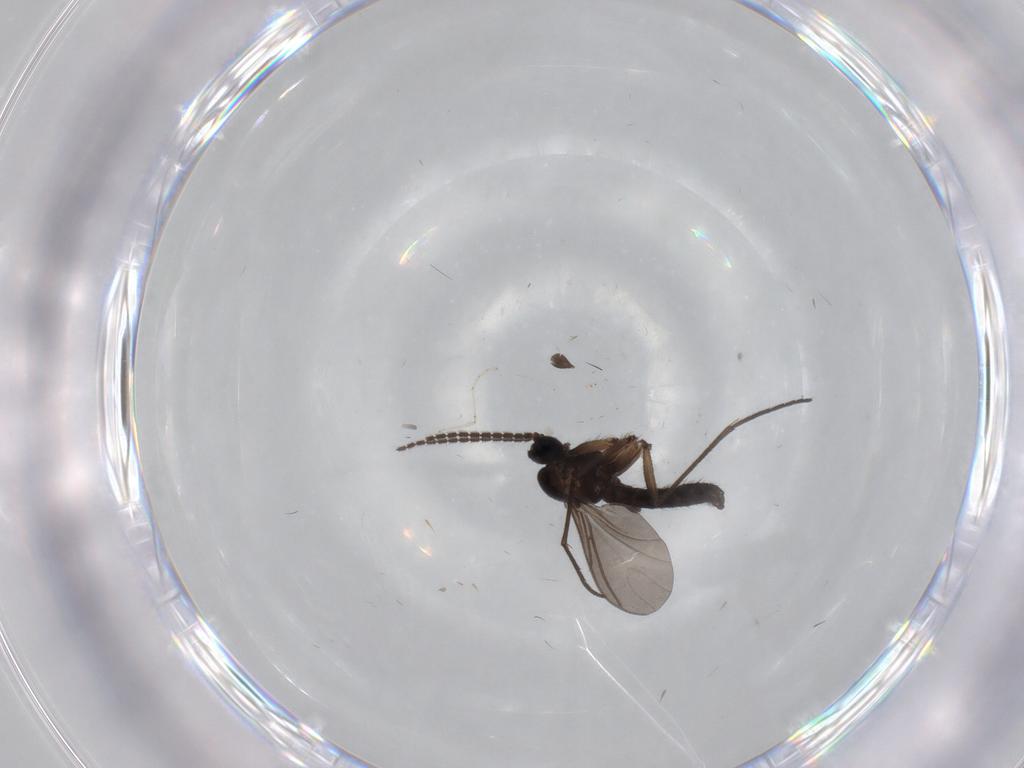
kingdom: Animalia
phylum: Arthropoda
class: Insecta
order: Diptera
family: Sciaridae
